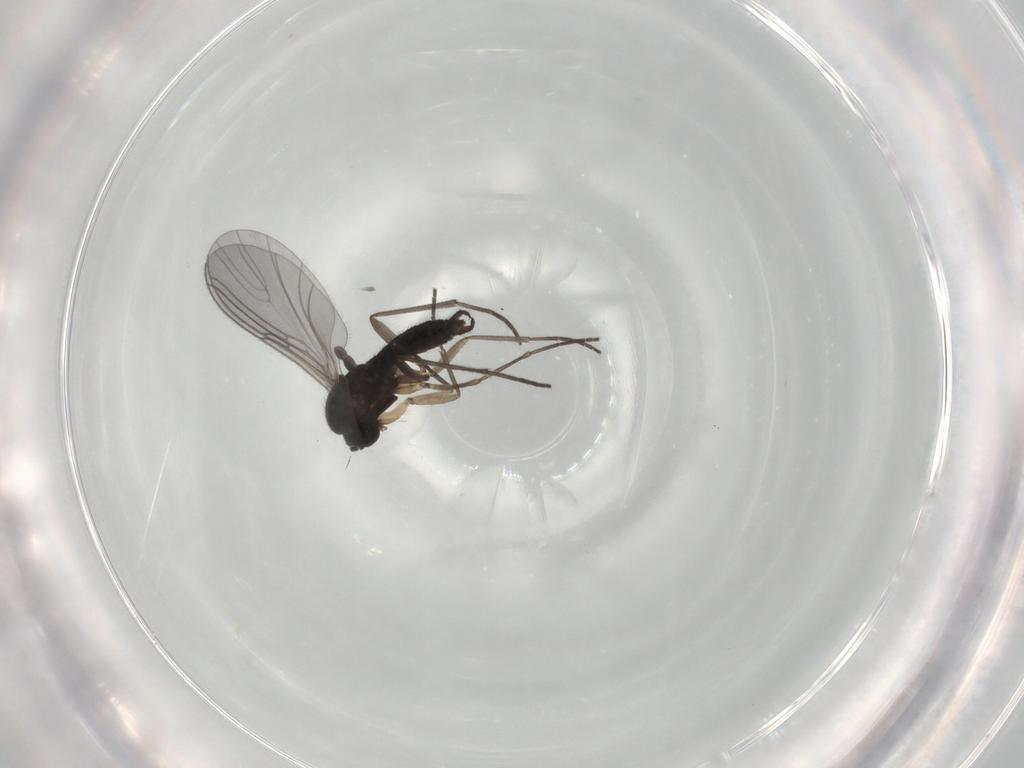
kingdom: Animalia
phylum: Arthropoda
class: Insecta
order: Diptera
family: Sciaridae
